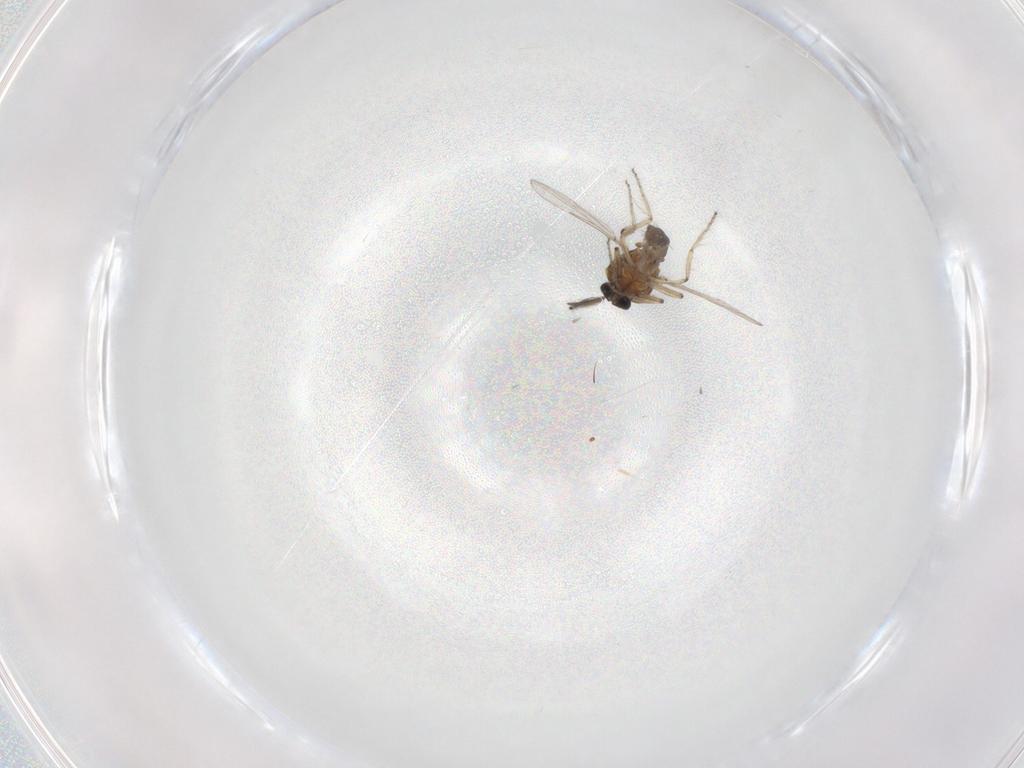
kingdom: Animalia
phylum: Arthropoda
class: Insecta
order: Diptera
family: Ceratopogonidae
